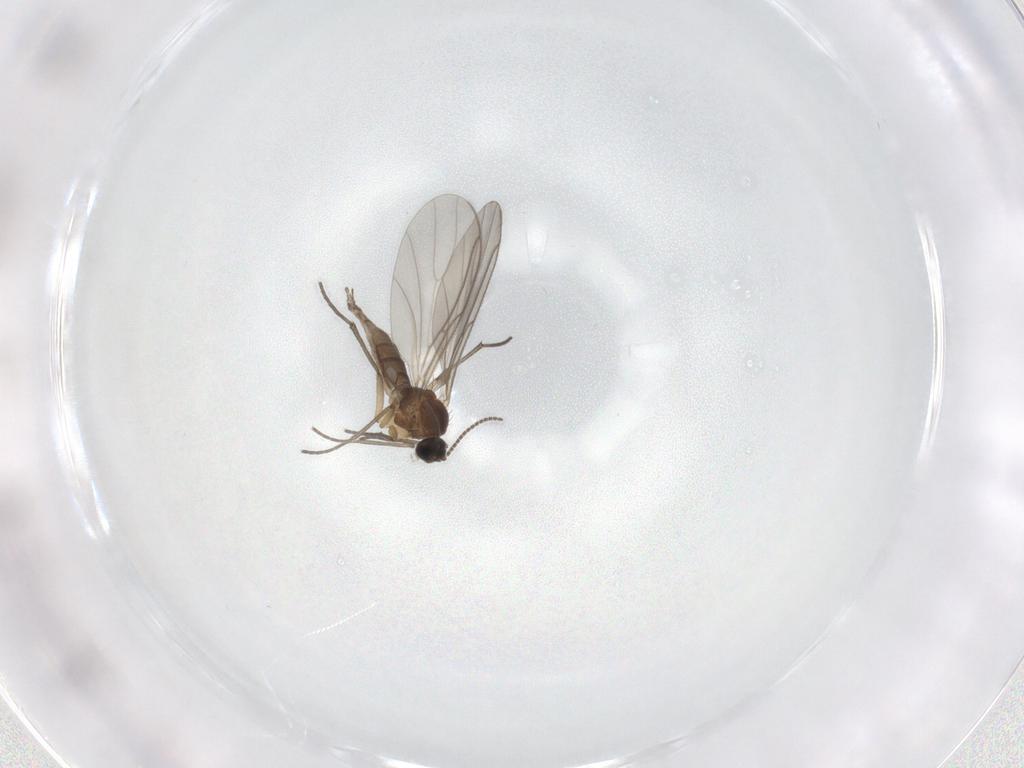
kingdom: Animalia
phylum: Arthropoda
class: Insecta
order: Diptera
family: Sciaridae
